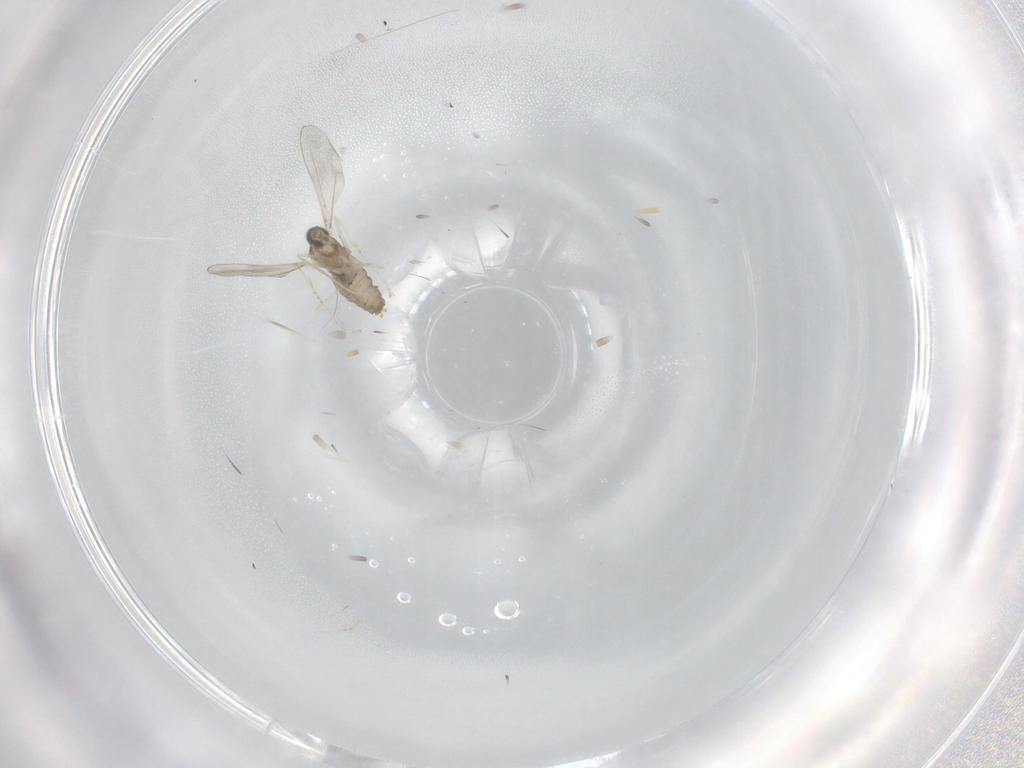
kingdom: Animalia
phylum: Arthropoda
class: Insecta
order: Diptera
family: Cecidomyiidae
